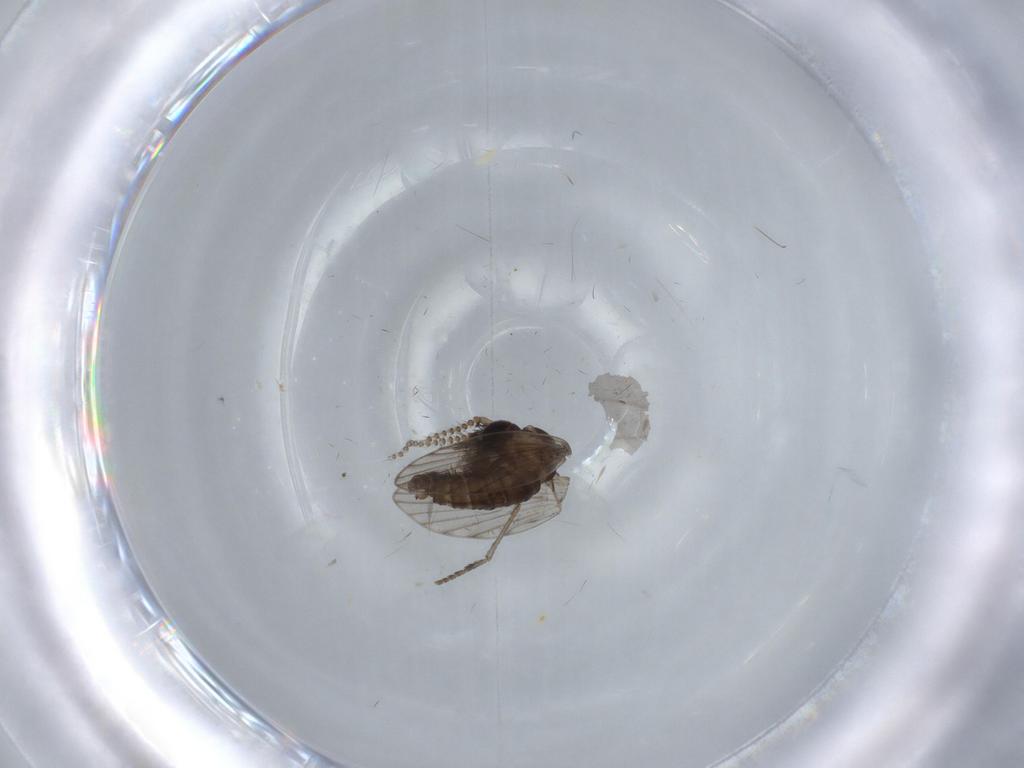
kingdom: Animalia
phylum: Arthropoda
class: Insecta
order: Diptera
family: Psychodidae
